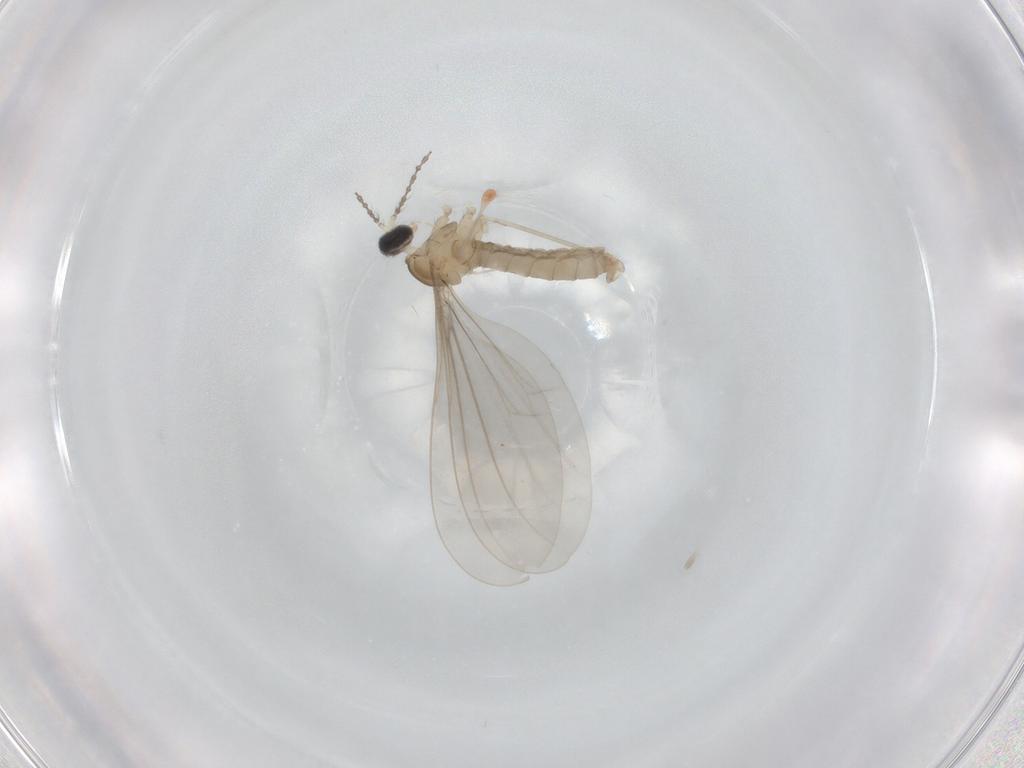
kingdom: Animalia
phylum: Arthropoda
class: Insecta
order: Diptera
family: Cecidomyiidae
